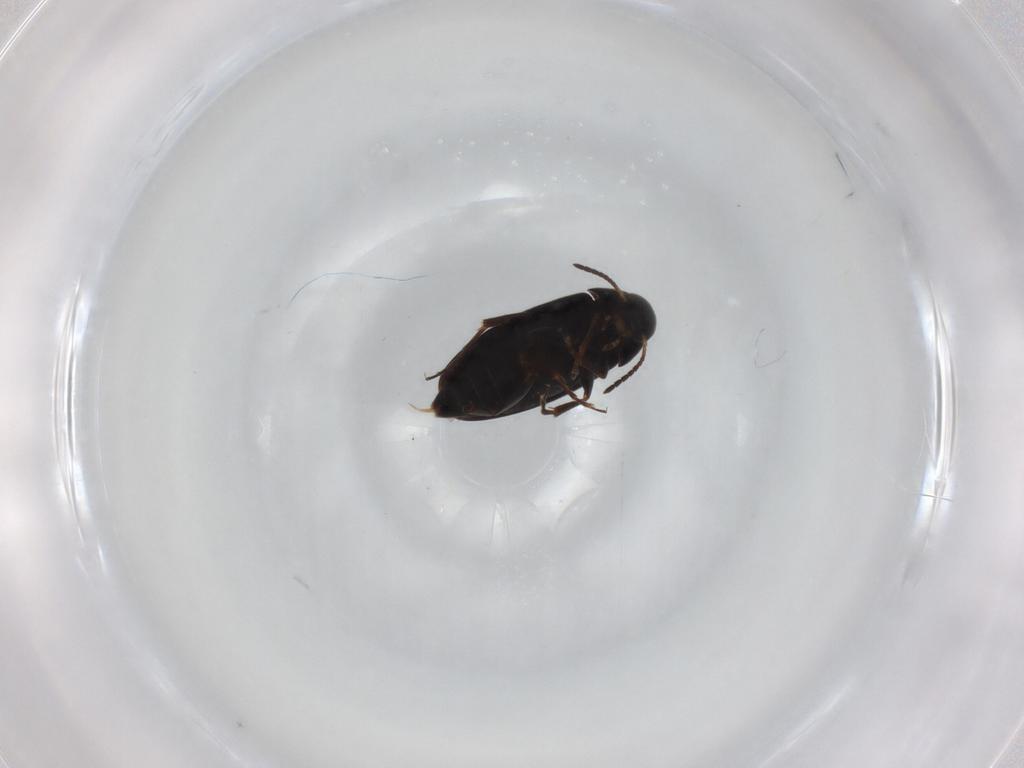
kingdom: Animalia
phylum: Arthropoda
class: Insecta
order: Coleoptera
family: Scraptiidae
